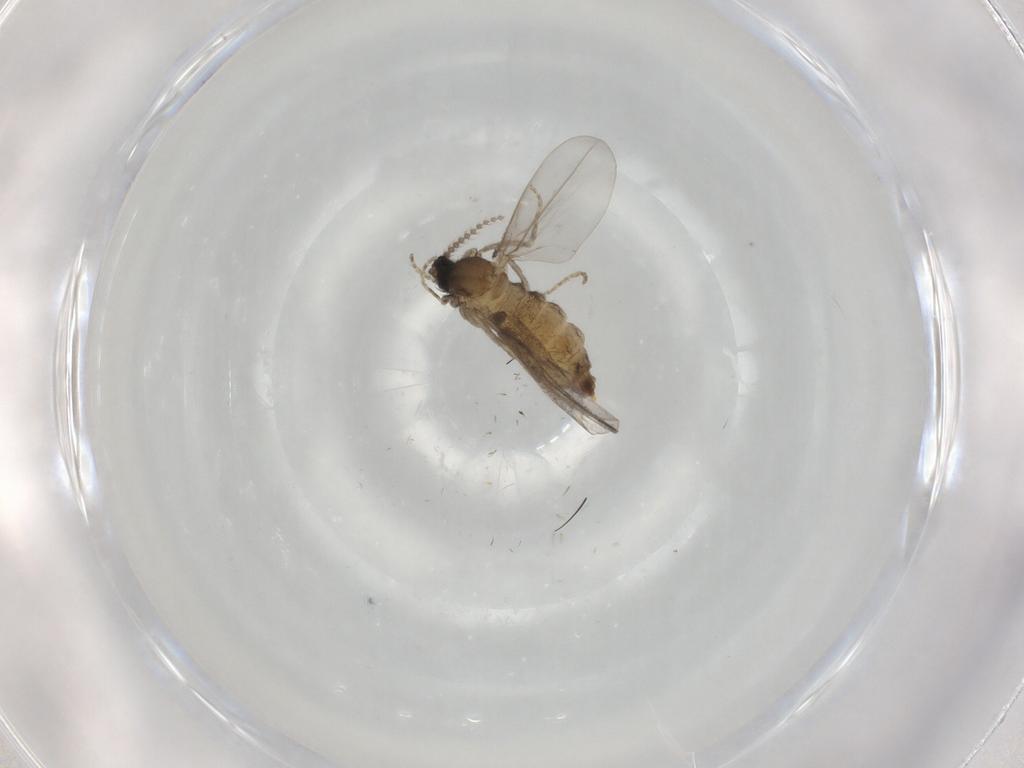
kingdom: Animalia
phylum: Arthropoda
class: Insecta
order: Diptera
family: Cecidomyiidae
